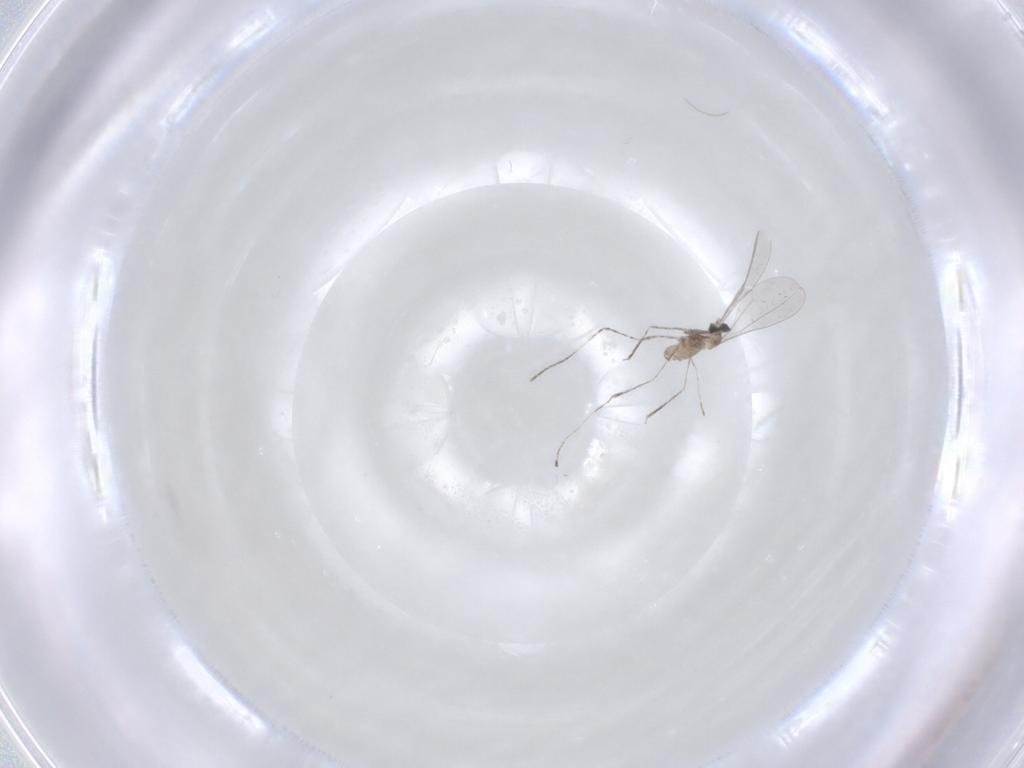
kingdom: Animalia
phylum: Arthropoda
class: Insecta
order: Diptera
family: Cecidomyiidae
